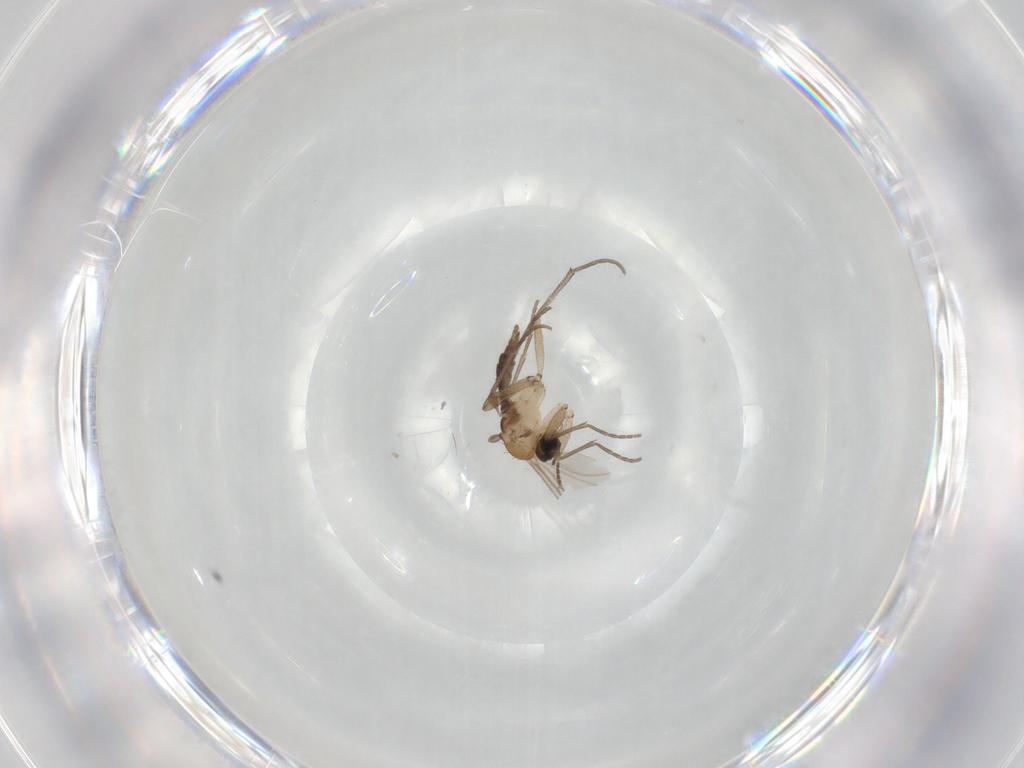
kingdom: Animalia
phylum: Arthropoda
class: Insecta
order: Diptera
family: Sciaridae
